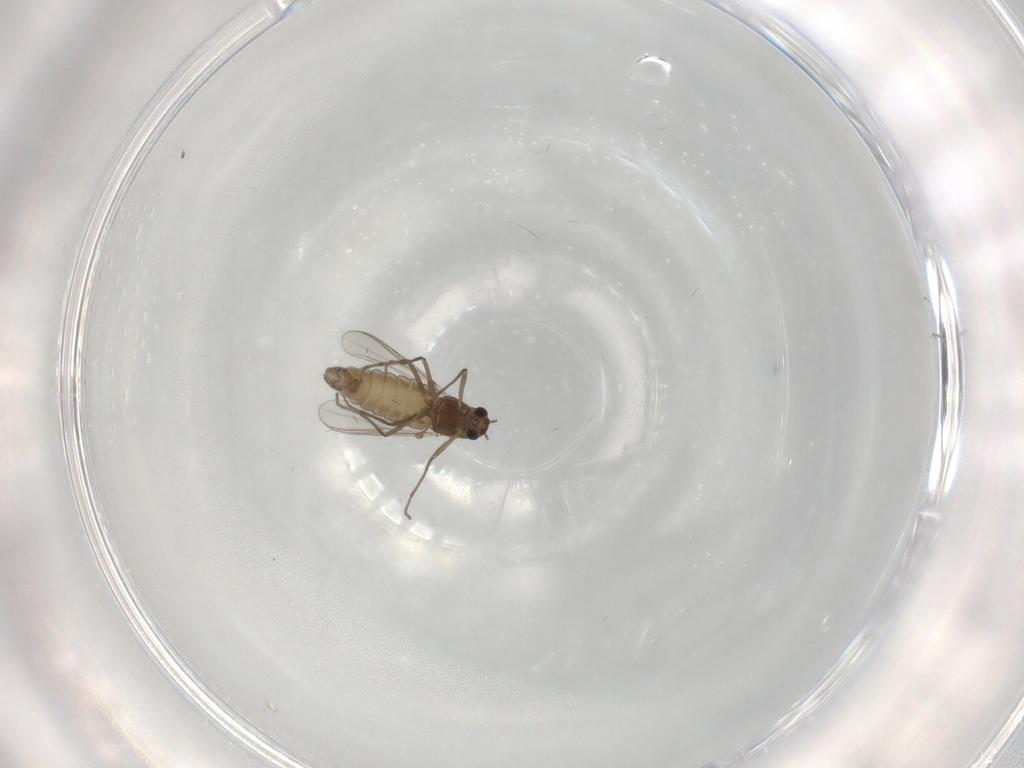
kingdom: Animalia
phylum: Arthropoda
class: Insecta
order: Diptera
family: Chironomidae
